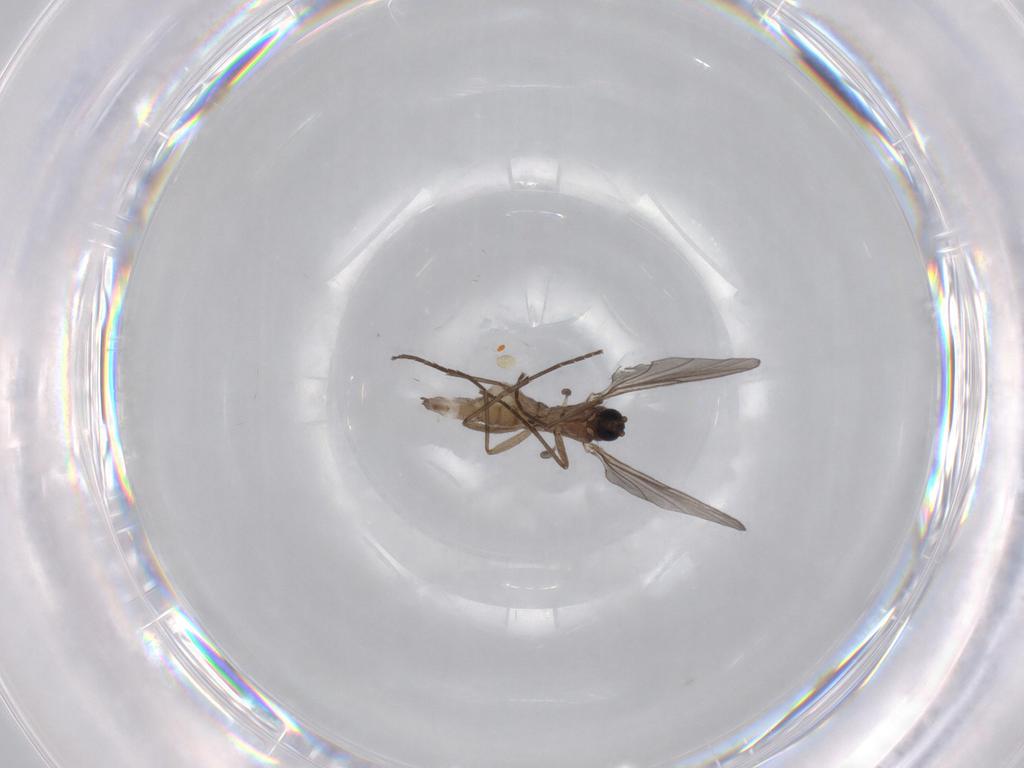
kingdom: Animalia
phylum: Arthropoda
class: Insecta
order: Diptera
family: Sciaridae
